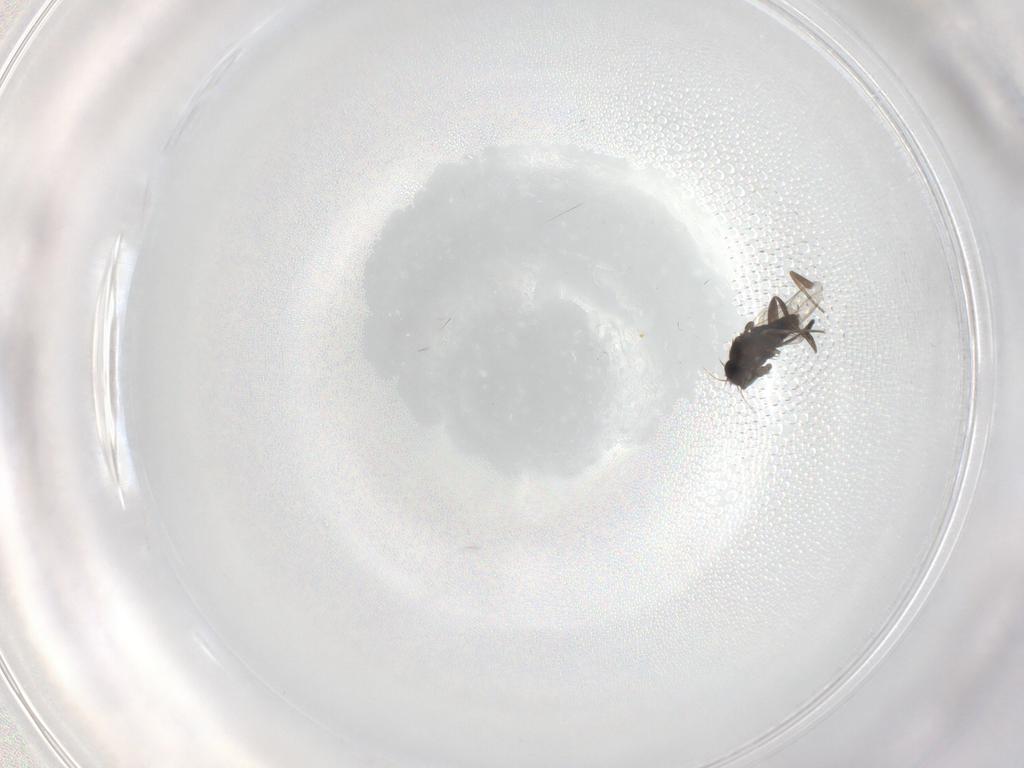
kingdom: Animalia
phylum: Arthropoda
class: Insecta
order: Diptera
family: Phoridae
